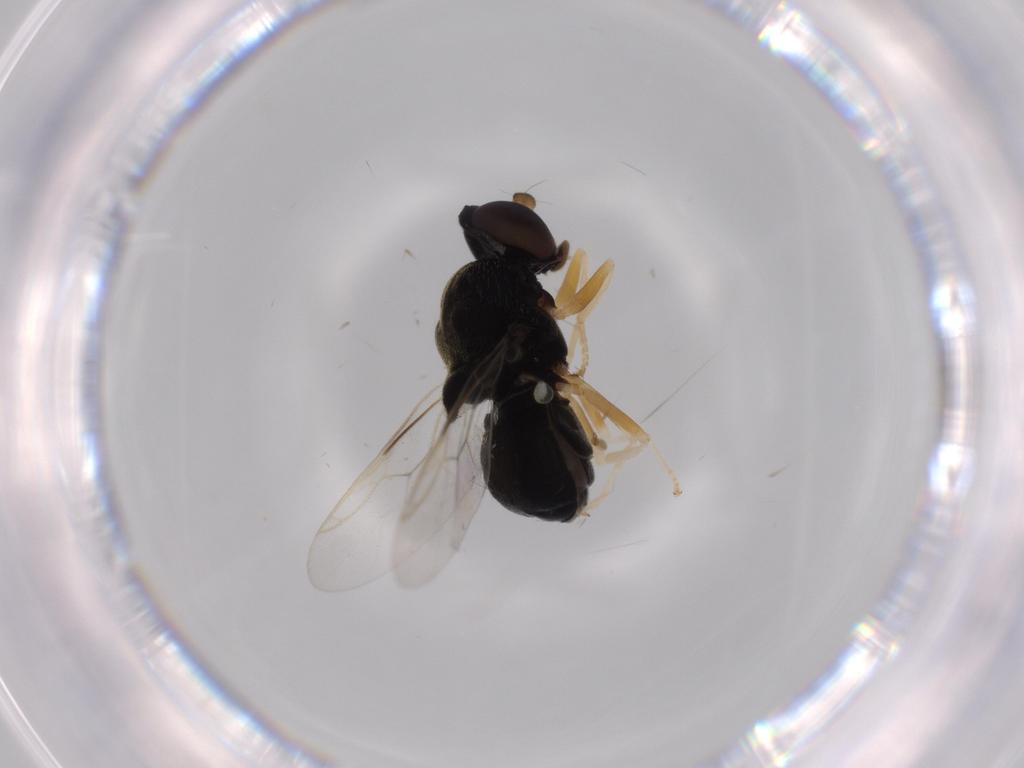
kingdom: Animalia
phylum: Arthropoda
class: Insecta
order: Diptera
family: Stratiomyidae
